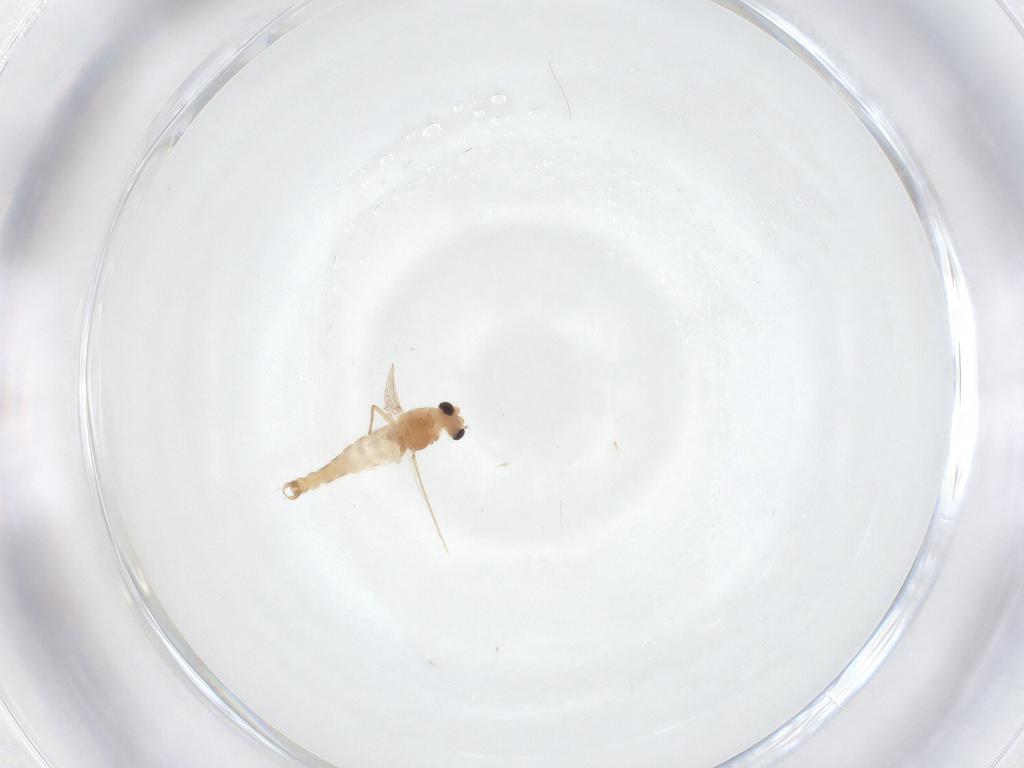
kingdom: Animalia
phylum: Arthropoda
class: Insecta
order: Diptera
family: Chironomidae
